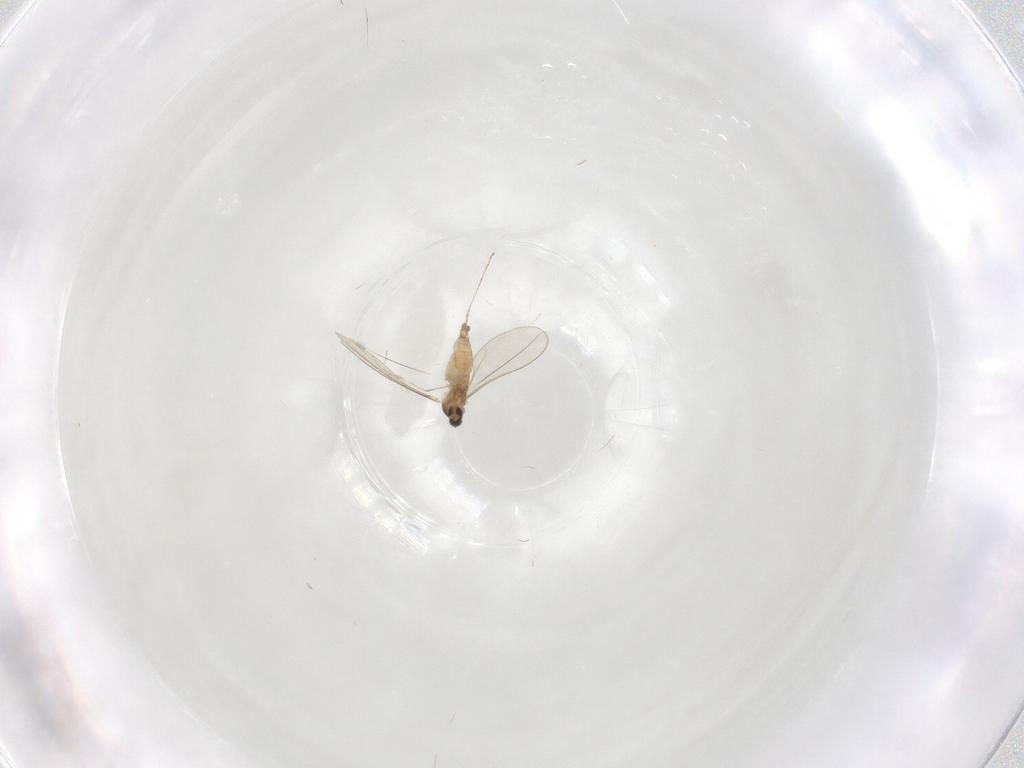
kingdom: Animalia
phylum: Arthropoda
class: Insecta
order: Diptera
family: Cecidomyiidae
